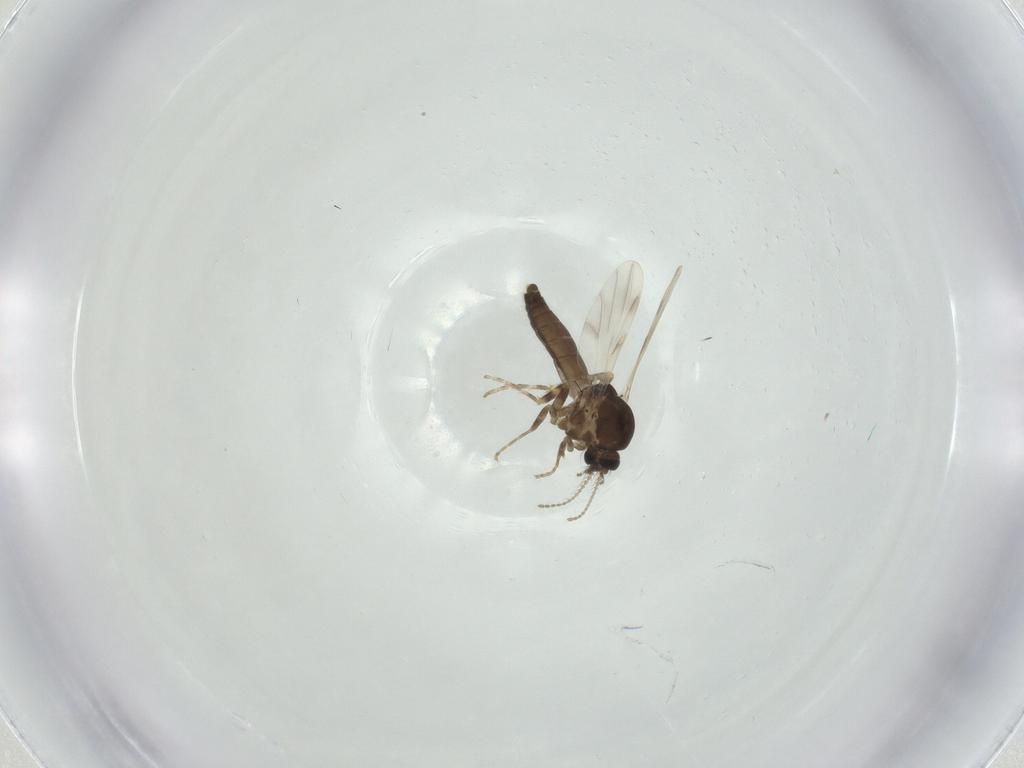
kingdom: Animalia
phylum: Arthropoda
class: Insecta
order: Diptera
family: Ceratopogonidae
